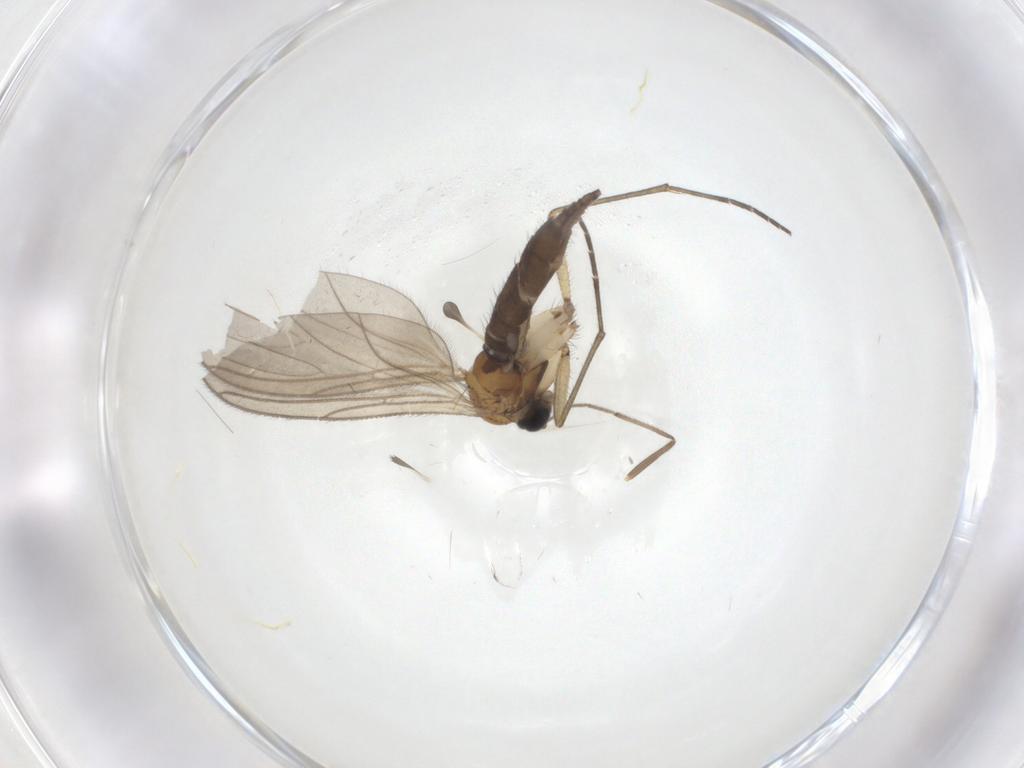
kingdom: Animalia
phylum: Arthropoda
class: Insecta
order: Diptera
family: Sciaridae
